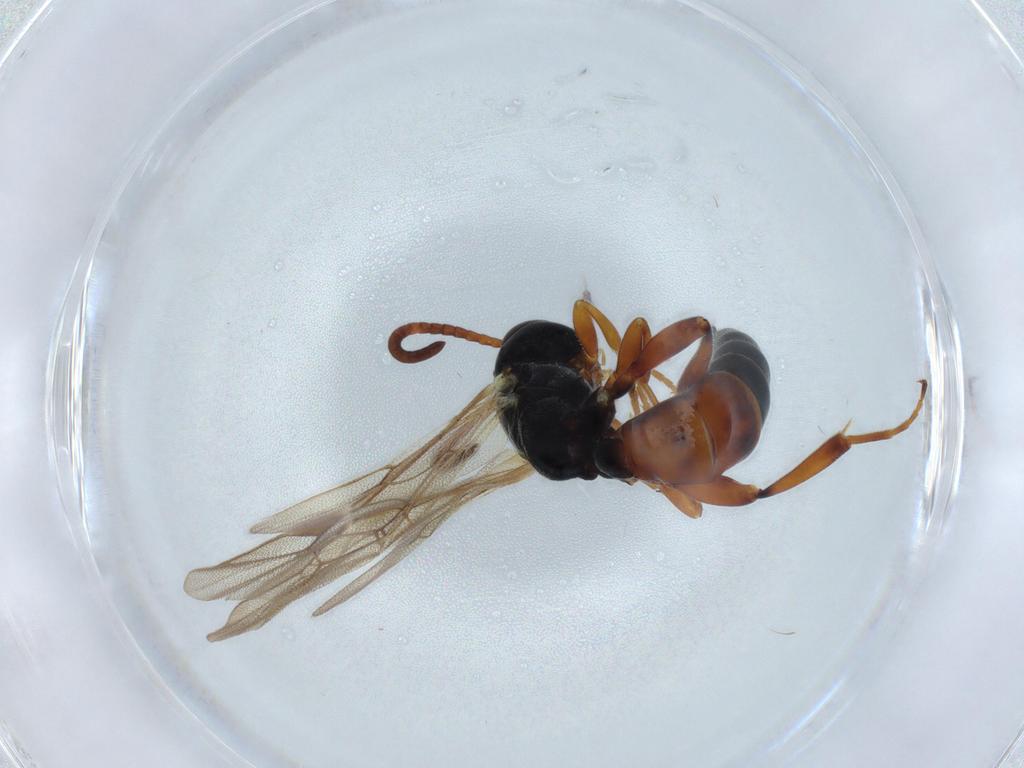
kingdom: Animalia
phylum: Arthropoda
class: Insecta
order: Hymenoptera
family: Ichneumonidae
